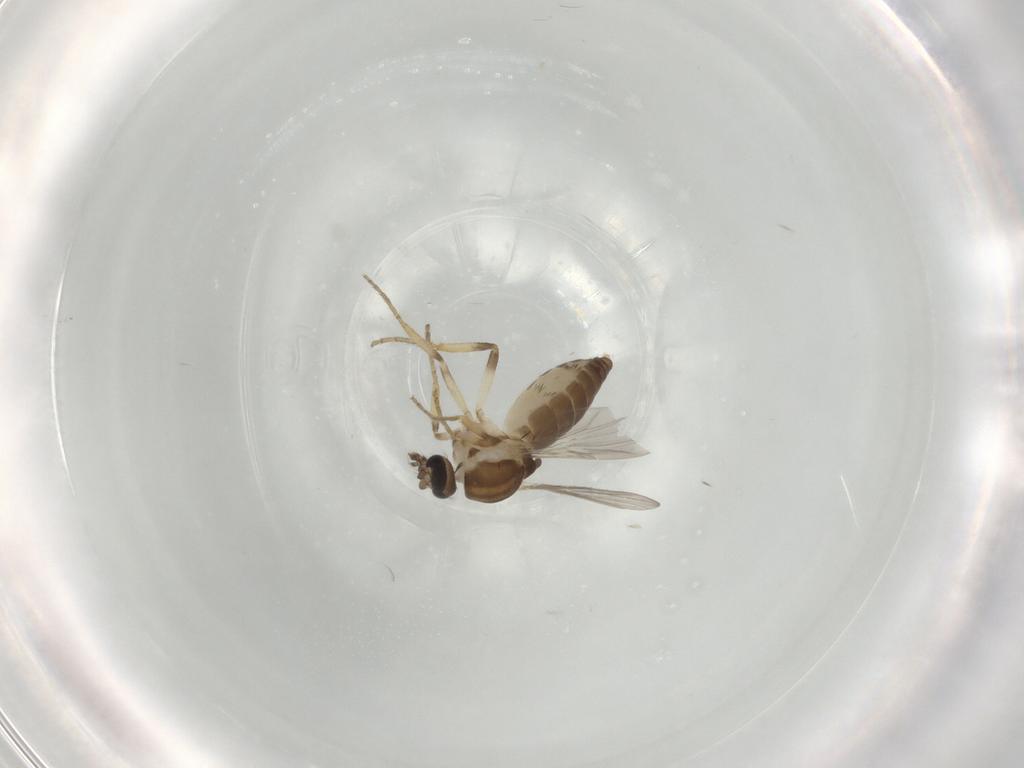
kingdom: Animalia
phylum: Arthropoda
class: Insecta
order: Diptera
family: Ceratopogonidae
